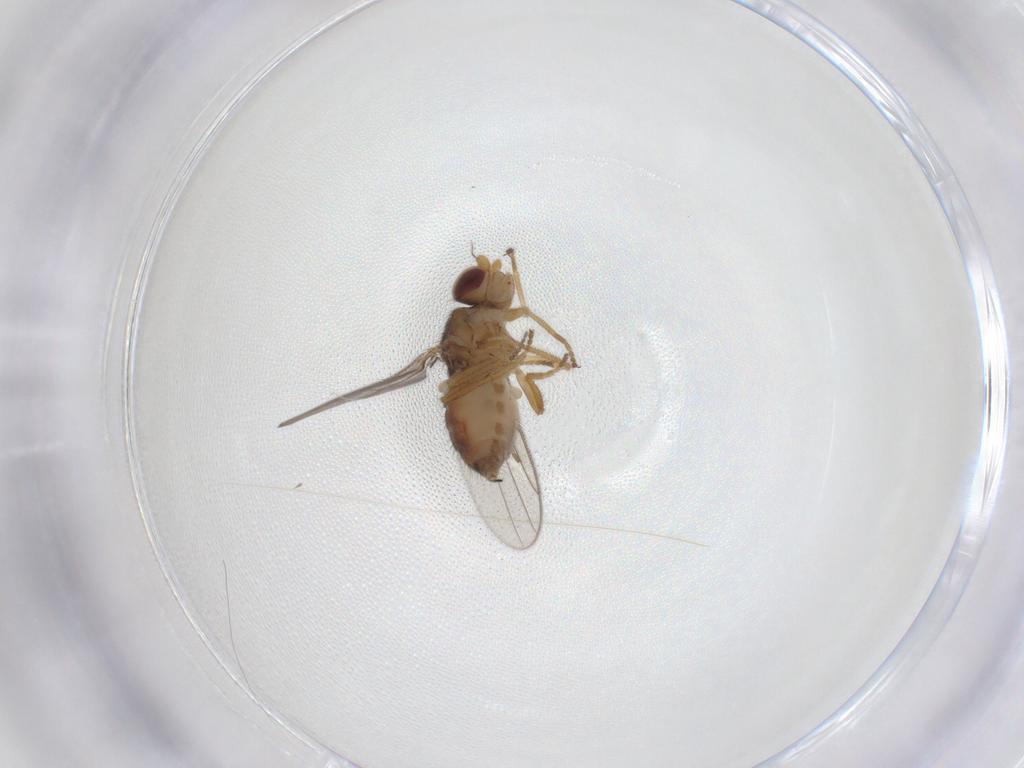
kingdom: Animalia
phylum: Arthropoda
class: Insecta
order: Diptera
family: Chloropidae
